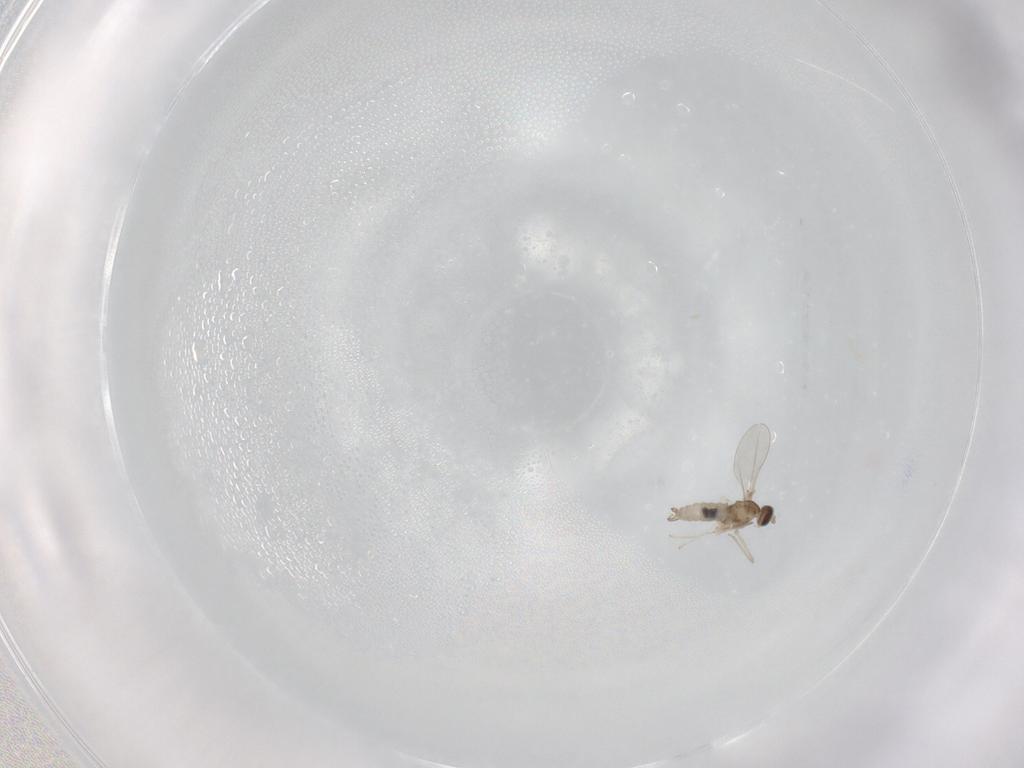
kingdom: Animalia
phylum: Arthropoda
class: Insecta
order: Diptera
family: Cecidomyiidae
